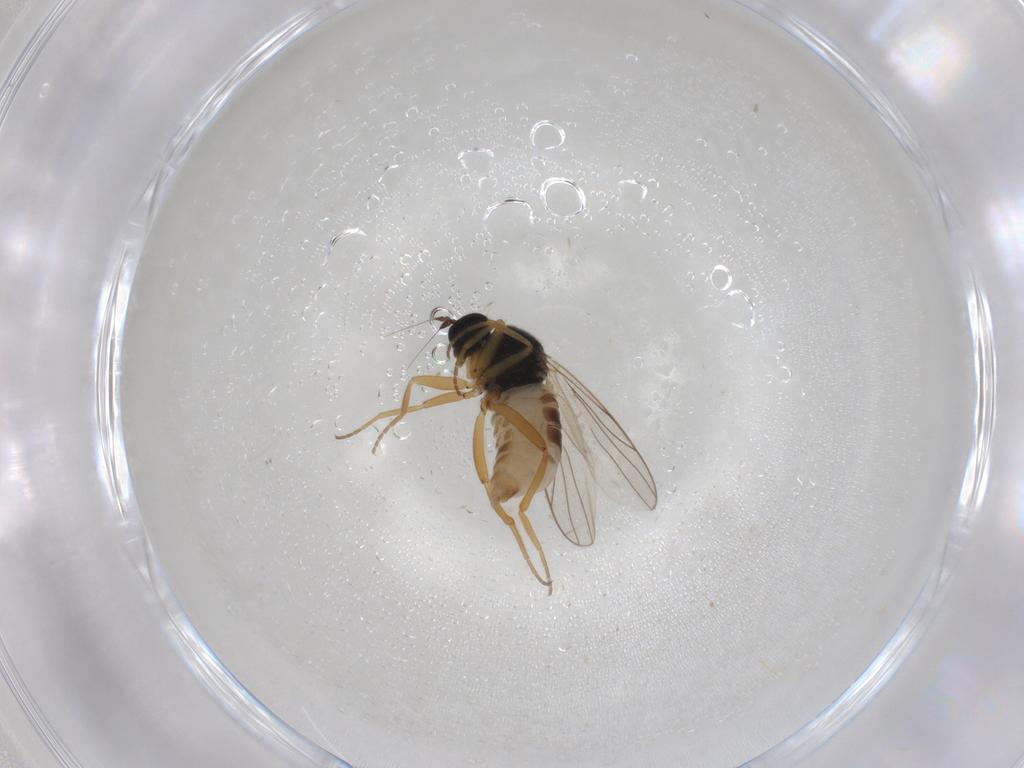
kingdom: Animalia
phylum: Arthropoda
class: Insecta
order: Diptera
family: Hybotidae
